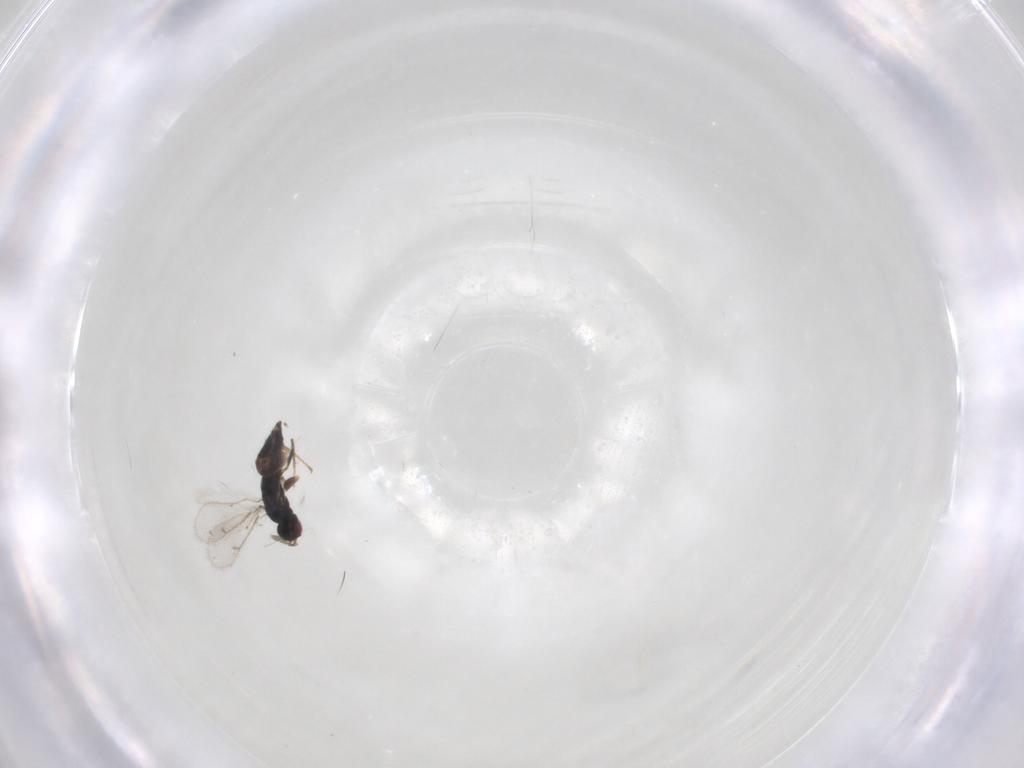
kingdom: Animalia
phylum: Arthropoda
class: Insecta
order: Hymenoptera
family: Eulophidae
